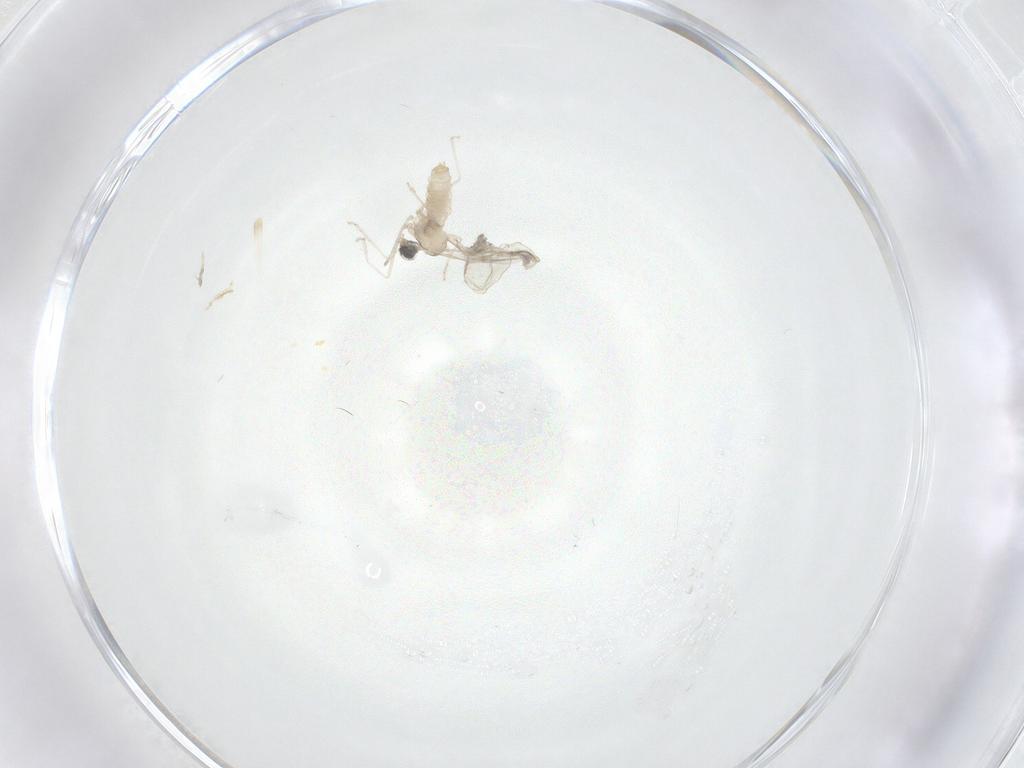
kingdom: Animalia
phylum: Arthropoda
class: Insecta
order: Diptera
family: Cecidomyiidae
